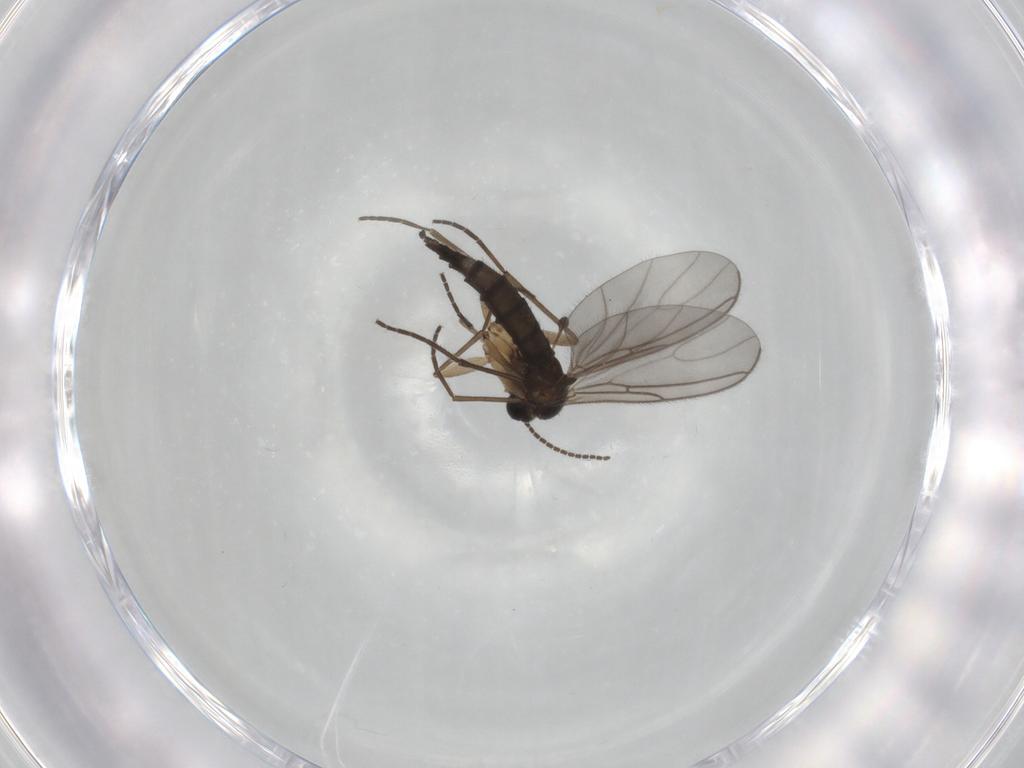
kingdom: Animalia
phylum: Arthropoda
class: Insecta
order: Diptera
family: Sciaridae
